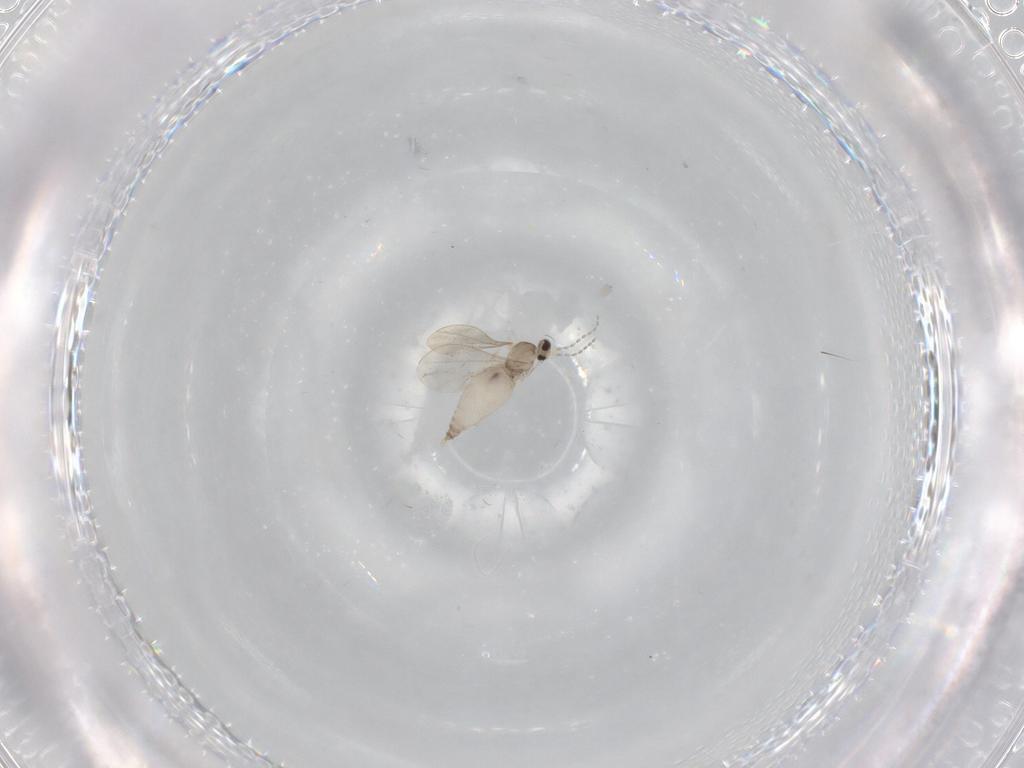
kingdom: Animalia
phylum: Arthropoda
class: Insecta
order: Diptera
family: Cecidomyiidae
